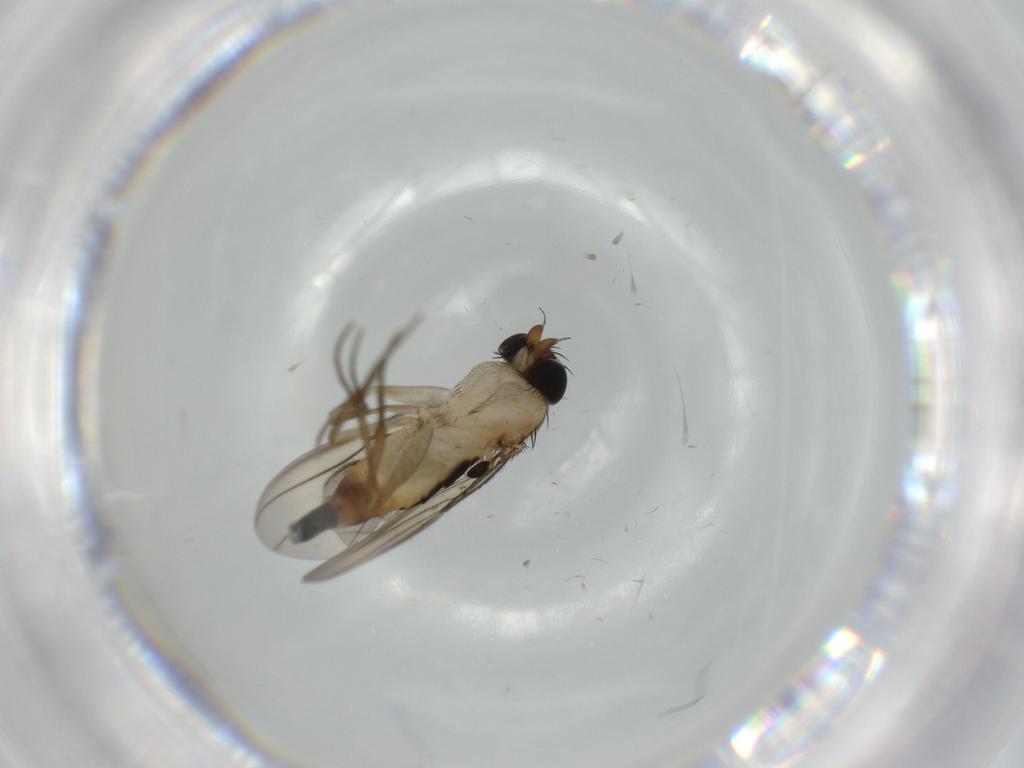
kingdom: Animalia
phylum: Arthropoda
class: Insecta
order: Diptera
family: Phoridae
